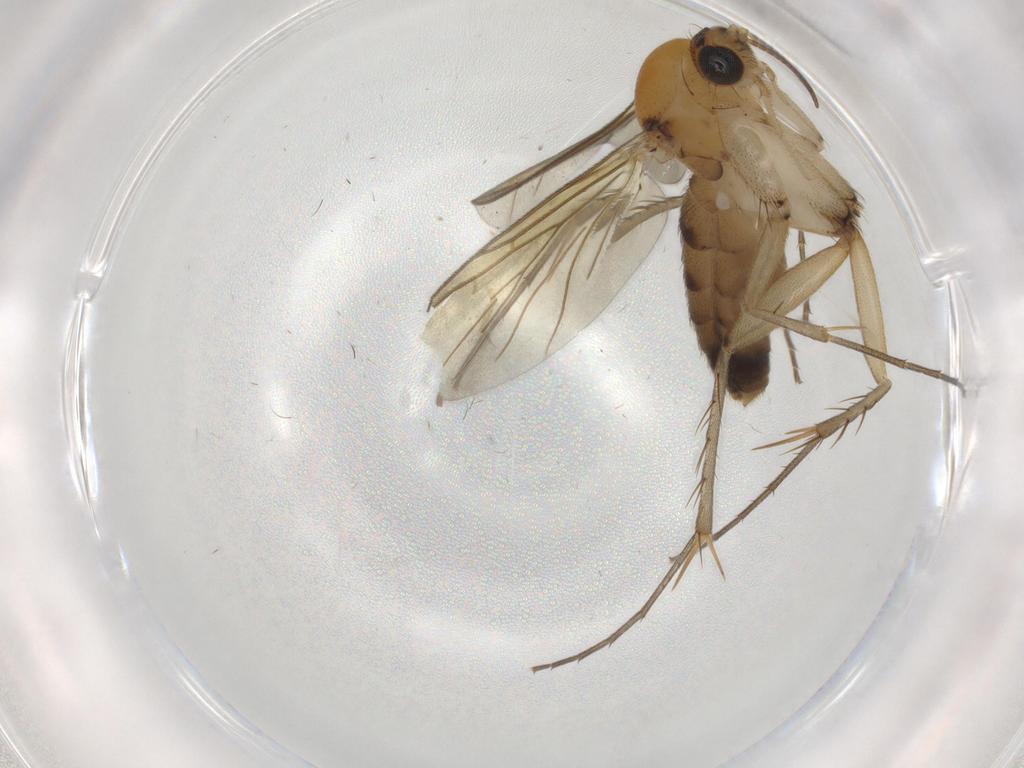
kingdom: Animalia
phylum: Arthropoda
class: Insecta
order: Diptera
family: Mycetophilidae
